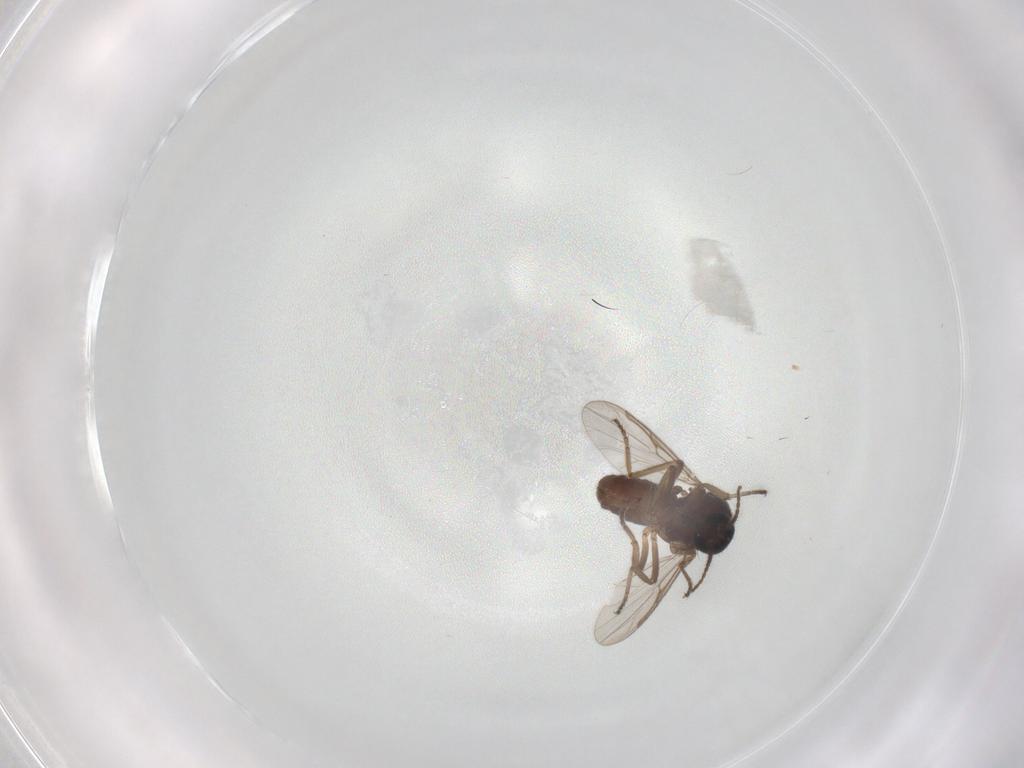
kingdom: Animalia
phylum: Arthropoda
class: Insecta
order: Diptera
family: Ceratopogonidae
